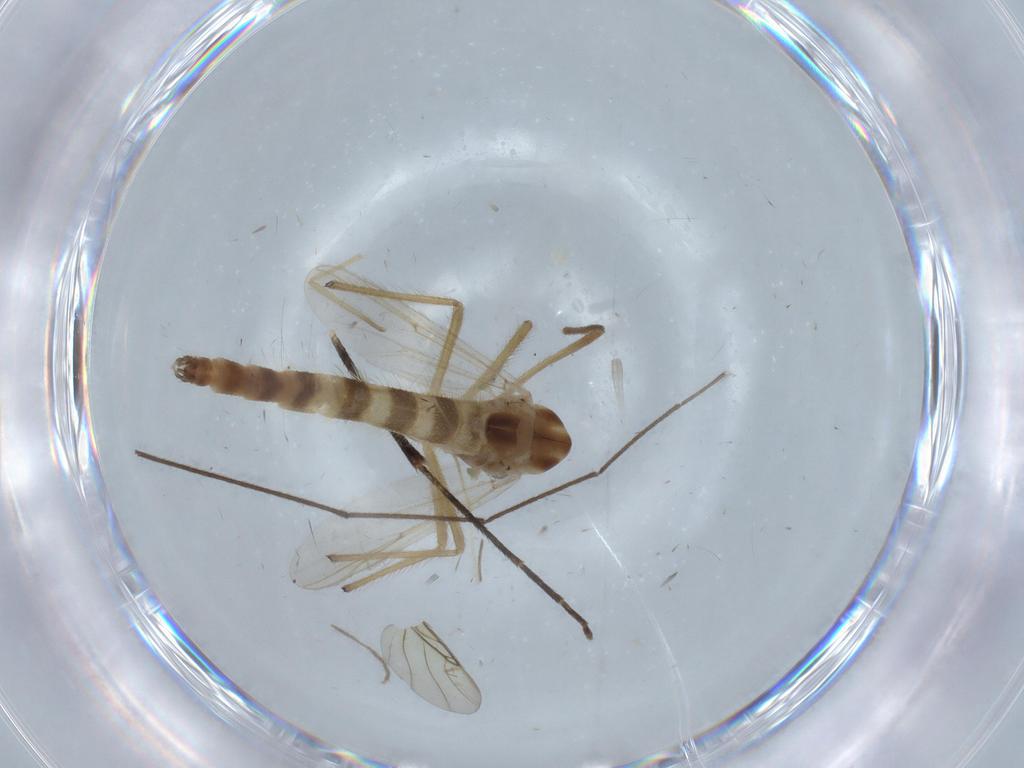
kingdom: Animalia
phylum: Arthropoda
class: Insecta
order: Diptera
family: Chironomidae
